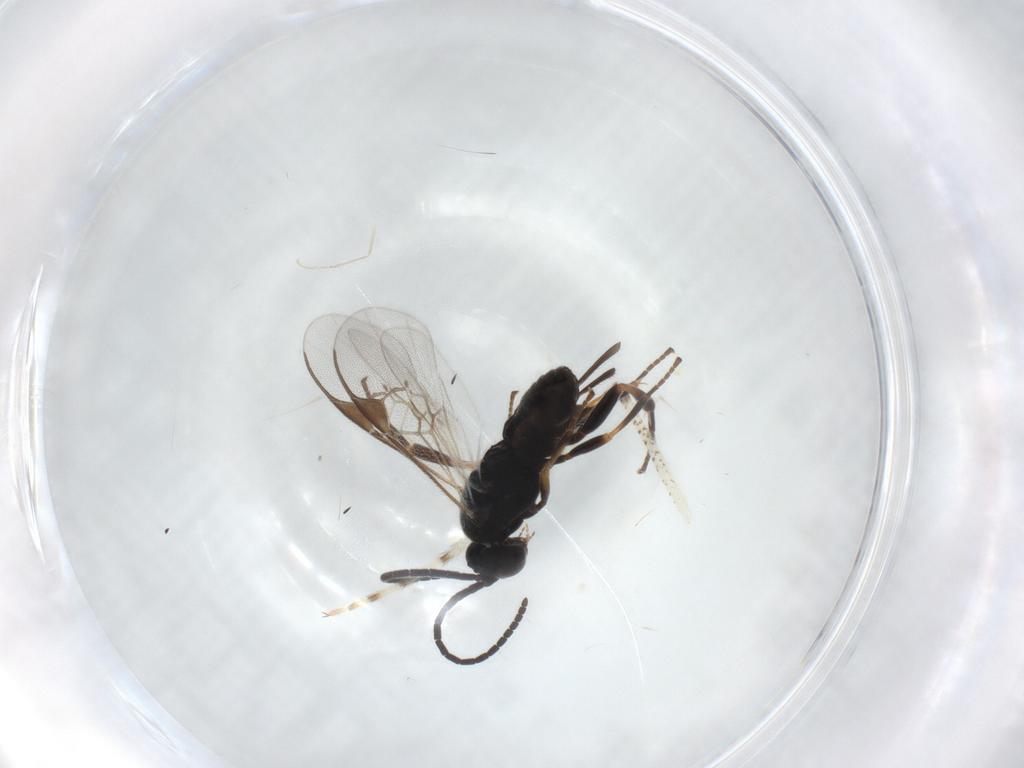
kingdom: Animalia
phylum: Arthropoda
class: Insecta
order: Hymenoptera
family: Braconidae
